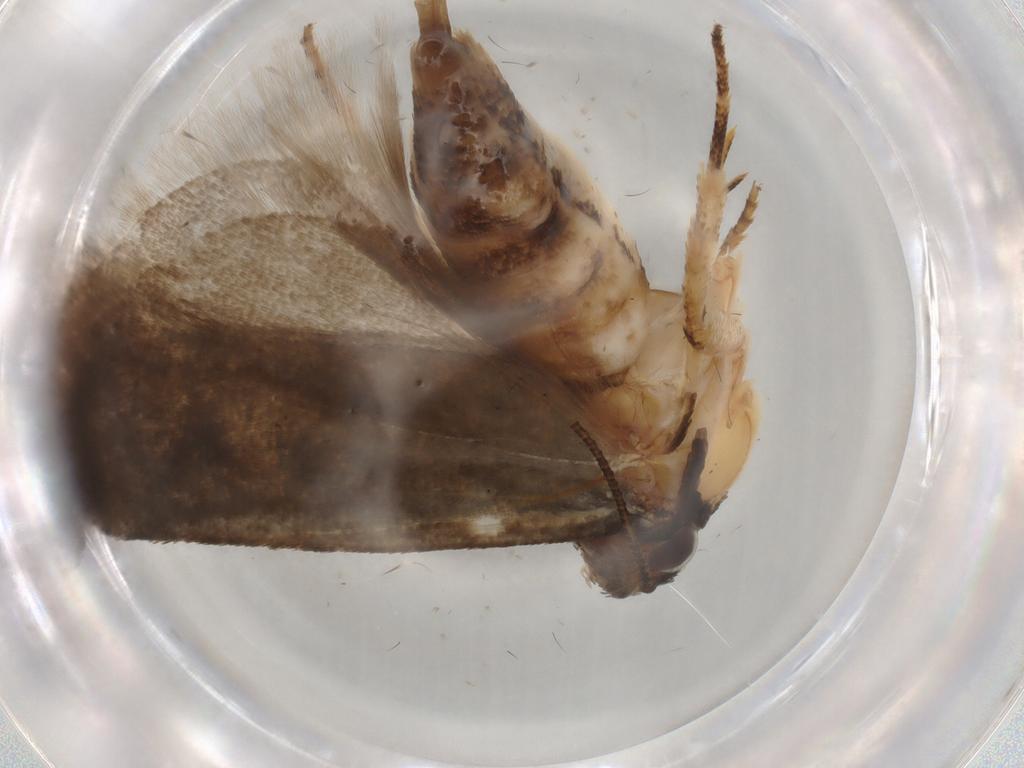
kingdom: Animalia
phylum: Arthropoda
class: Insecta
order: Lepidoptera
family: Gelechiidae
